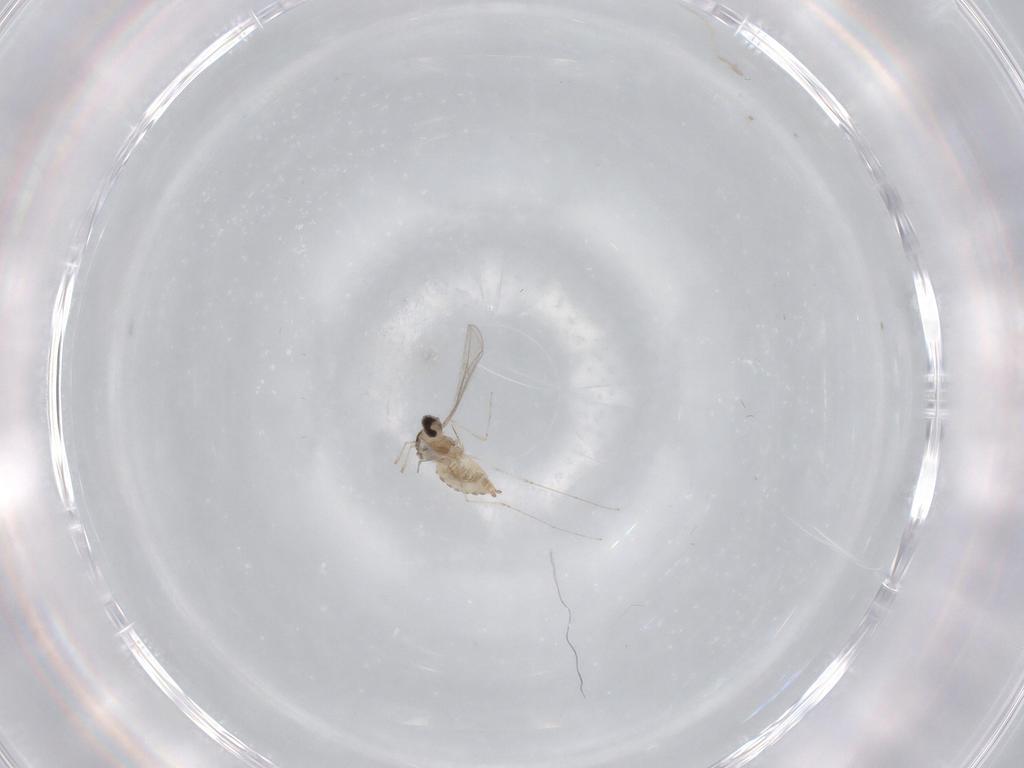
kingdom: Animalia
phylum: Arthropoda
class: Insecta
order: Diptera
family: Cecidomyiidae
